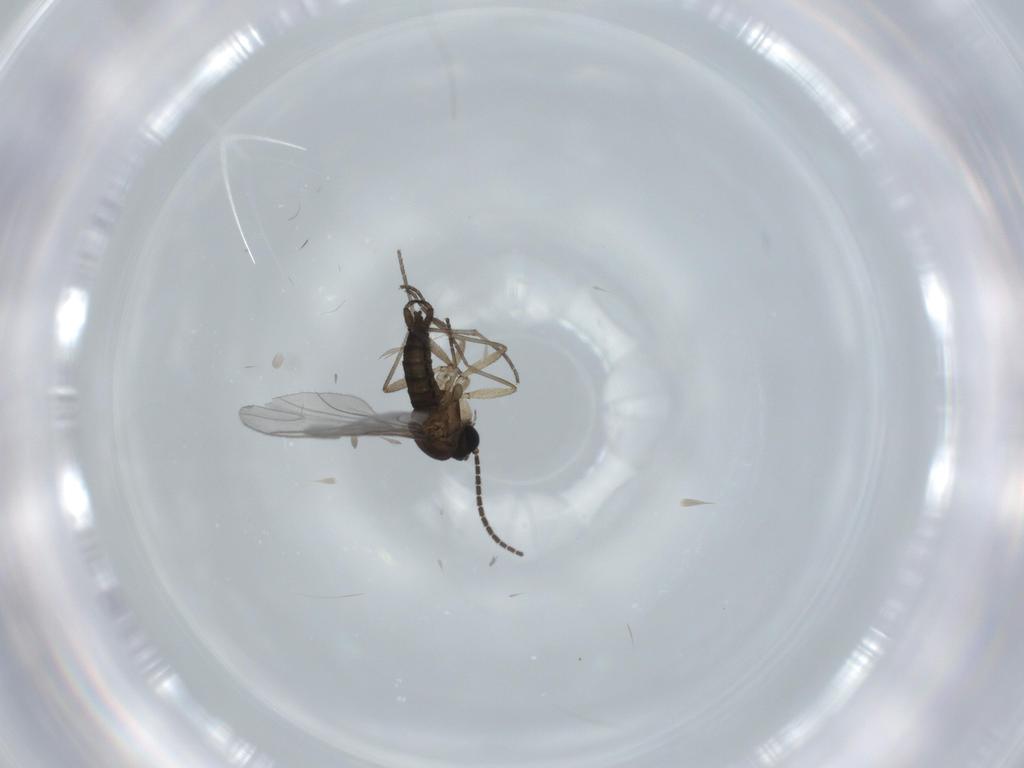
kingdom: Animalia
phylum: Arthropoda
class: Insecta
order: Diptera
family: Sciaridae
